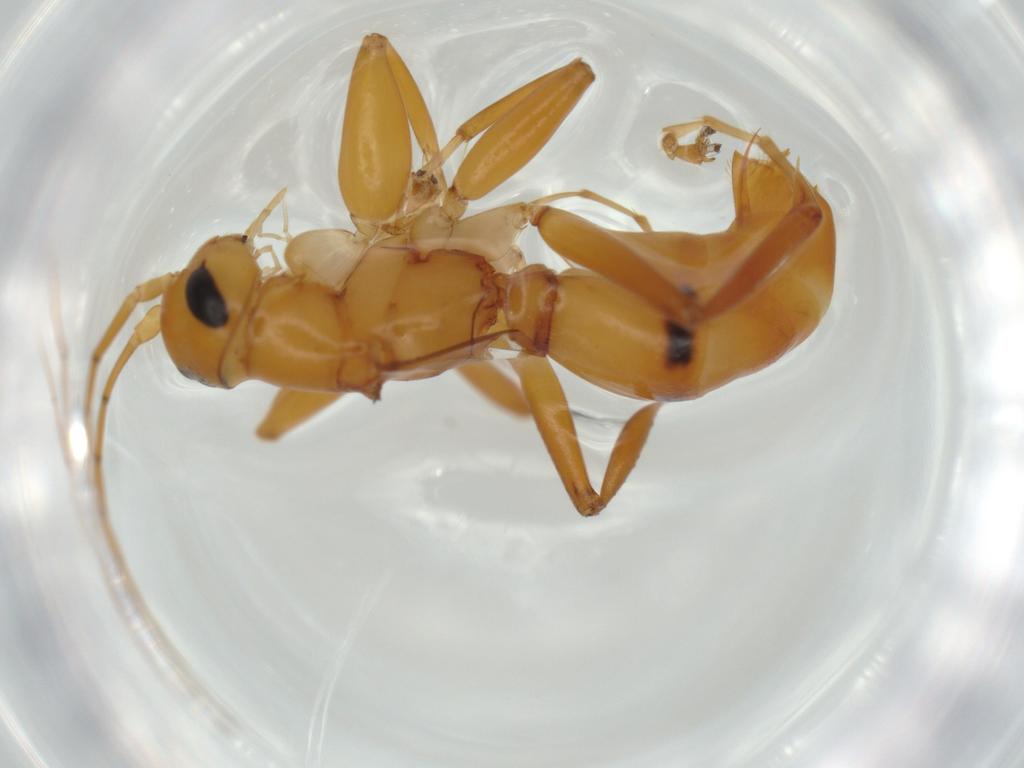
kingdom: Animalia
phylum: Arthropoda
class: Insecta
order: Hymenoptera
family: Rhopalosomatidae
